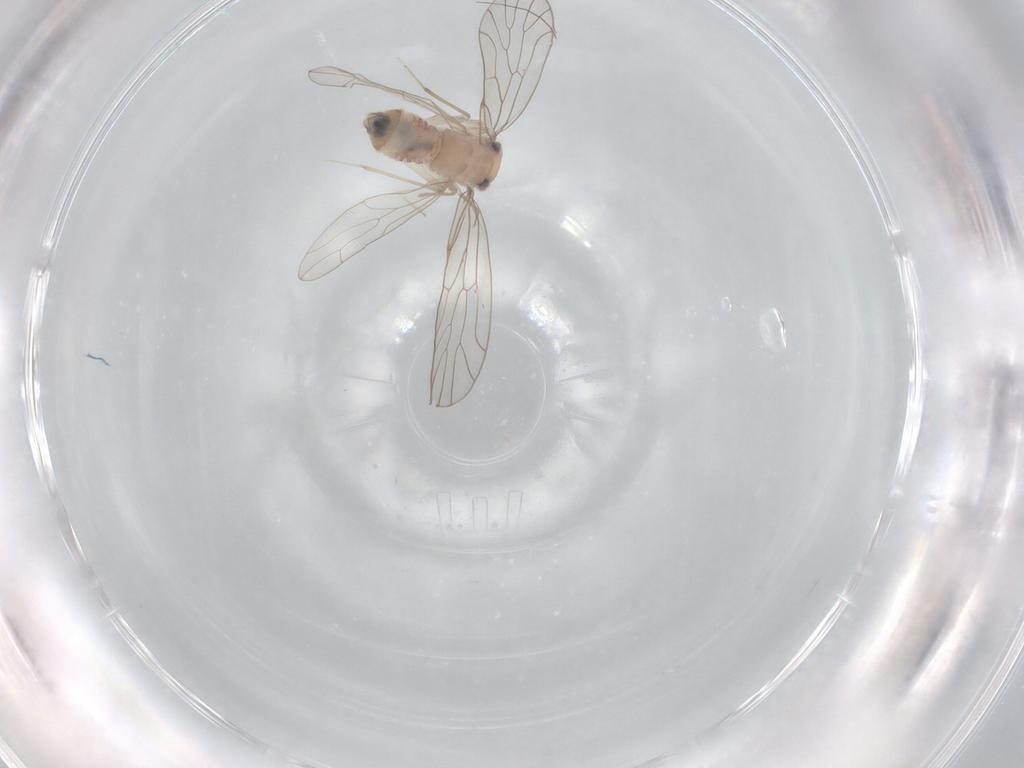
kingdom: Animalia
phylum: Arthropoda
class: Insecta
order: Psocodea
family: Musapsocidae
